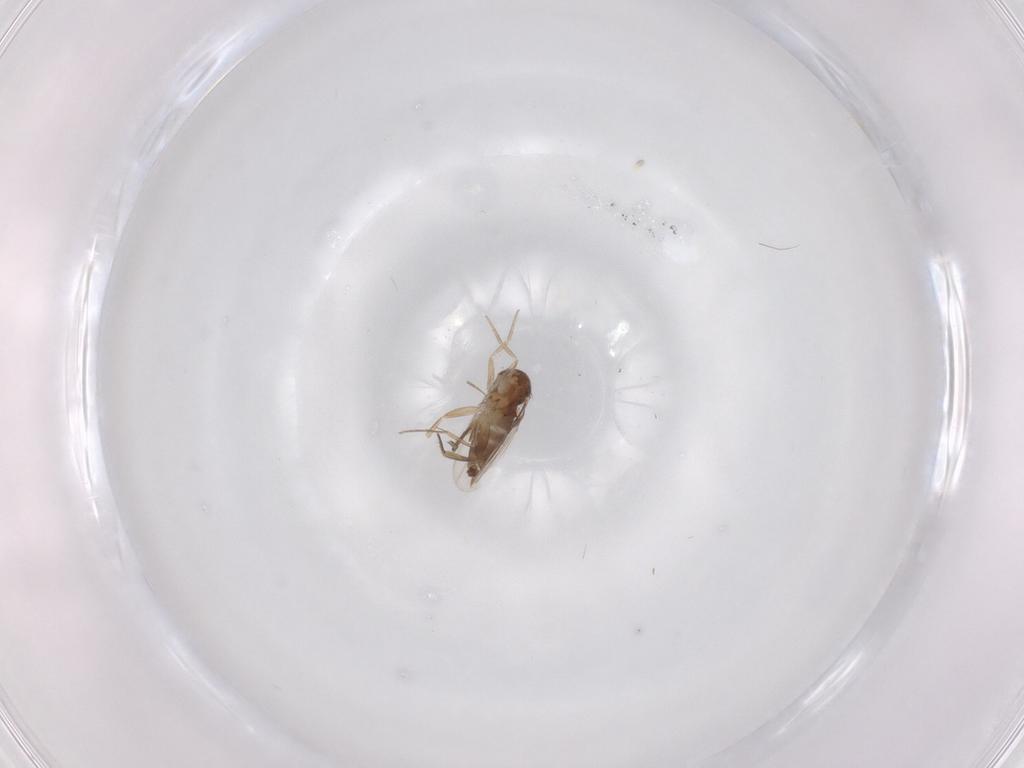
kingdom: Animalia
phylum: Arthropoda
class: Insecta
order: Diptera
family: Phoridae
